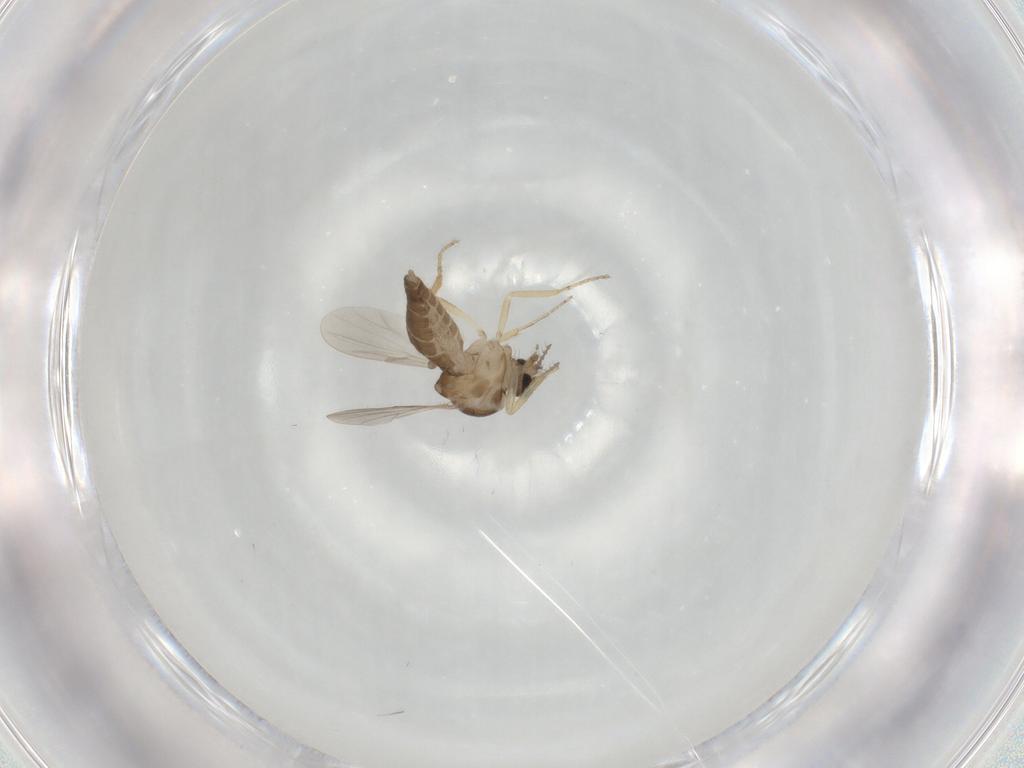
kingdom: Animalia
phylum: Arthropoda
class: Insecta
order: Diptera
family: Ceratopogonidae
